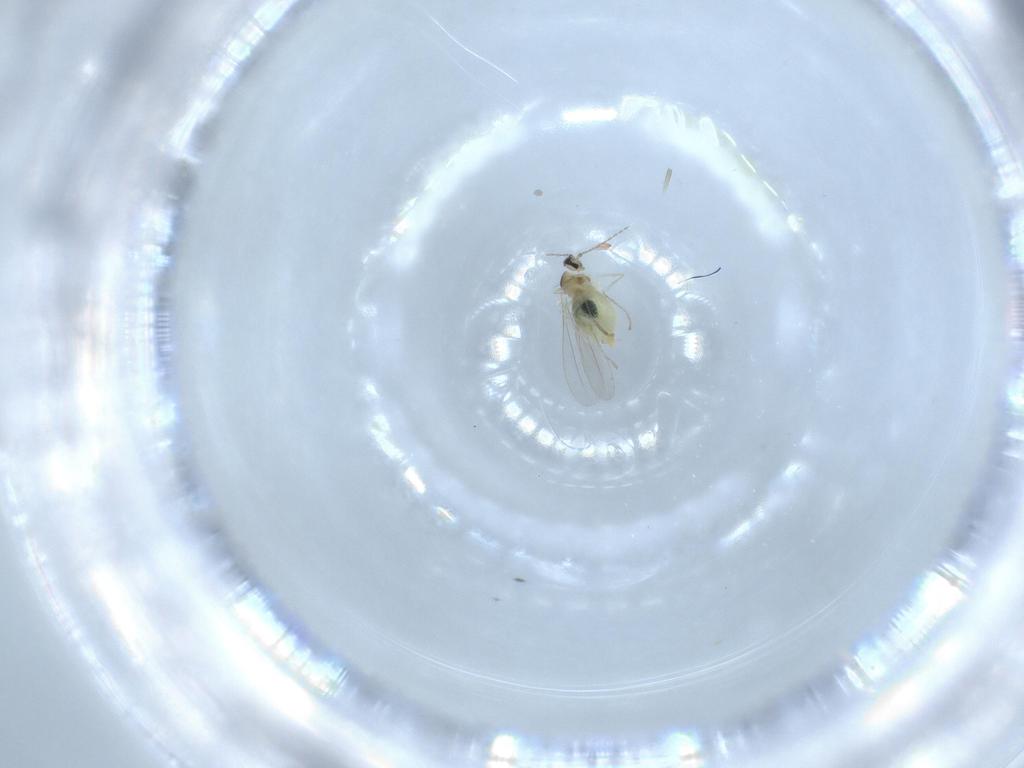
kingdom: Animalia
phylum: Arthropoda
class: Insecta
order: Diptera
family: Cecidomyiidae
